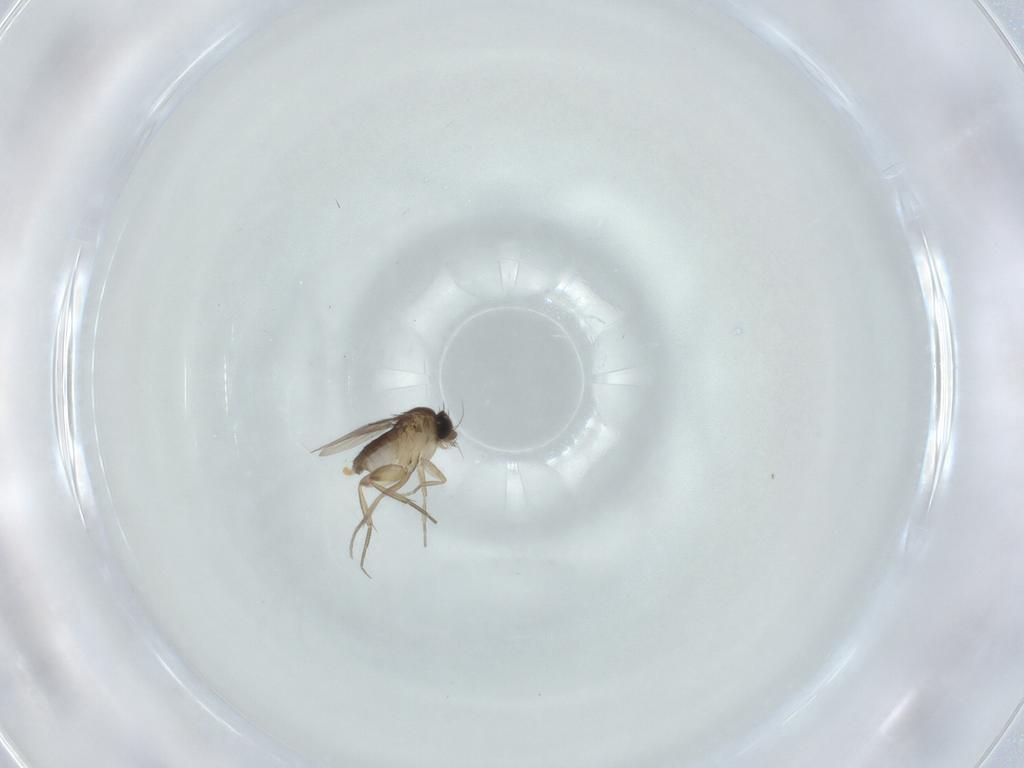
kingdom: Animalia
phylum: Arthropoda
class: Insecta
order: Diptera
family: Phoridae
